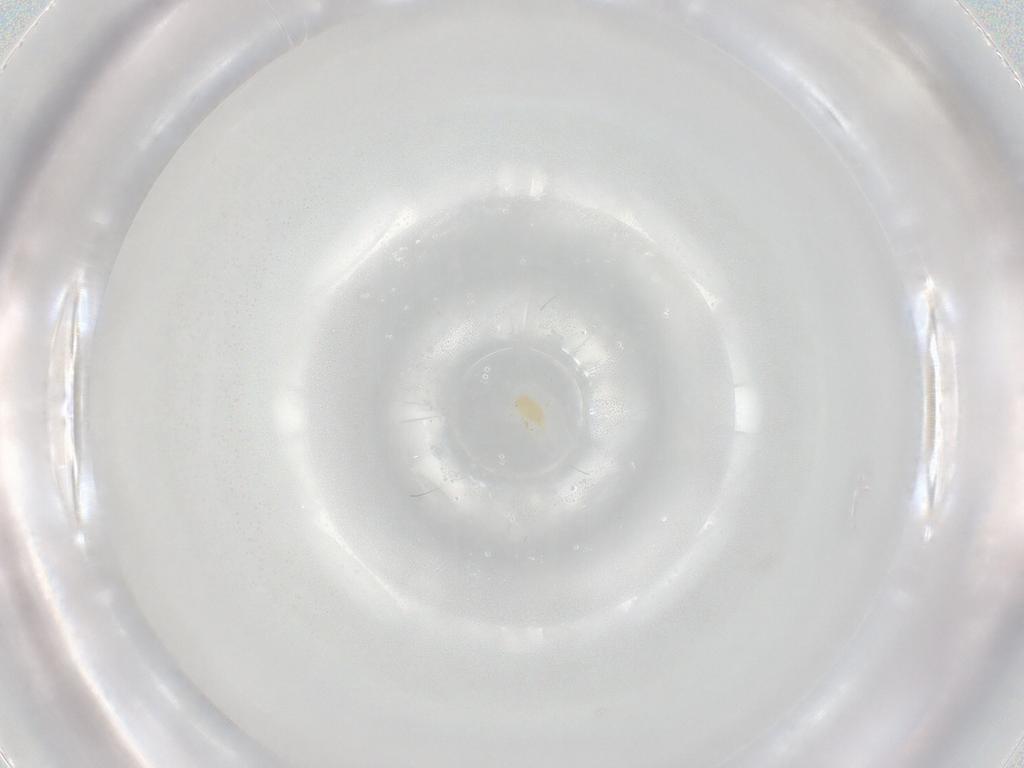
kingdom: Animalia
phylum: Arthropoda
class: Arachnida
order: Trombidiformes
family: Eupodidae
